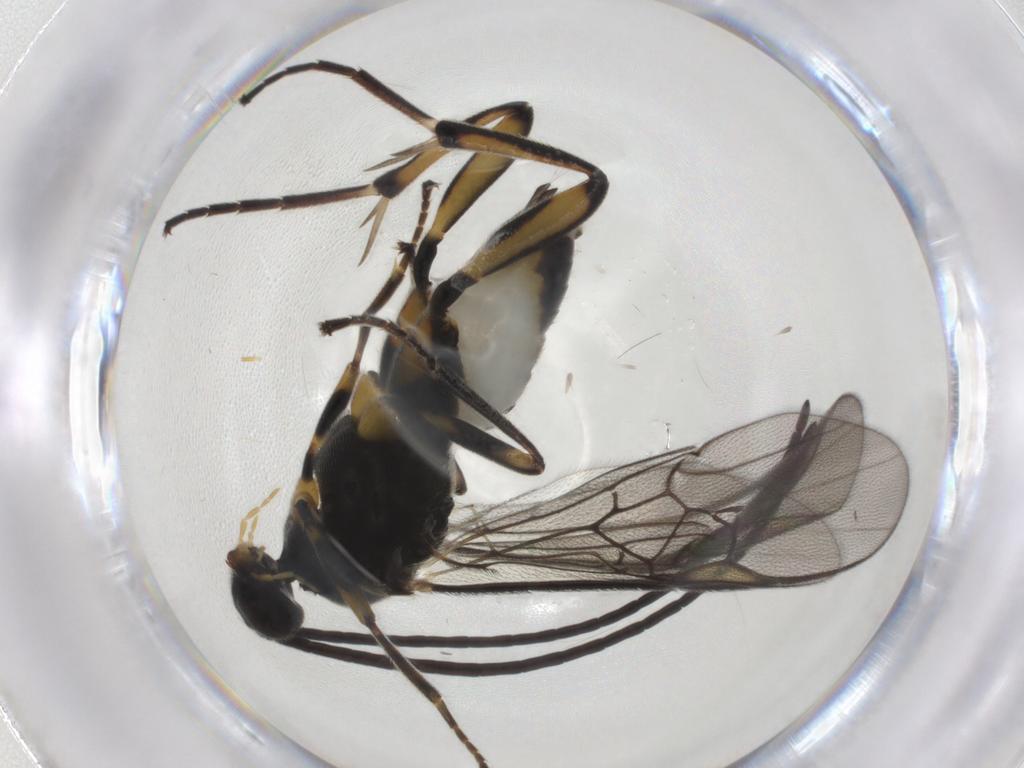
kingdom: Animalia
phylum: Arthropoda
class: Insecta
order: Hymenoptera
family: Braconidae
